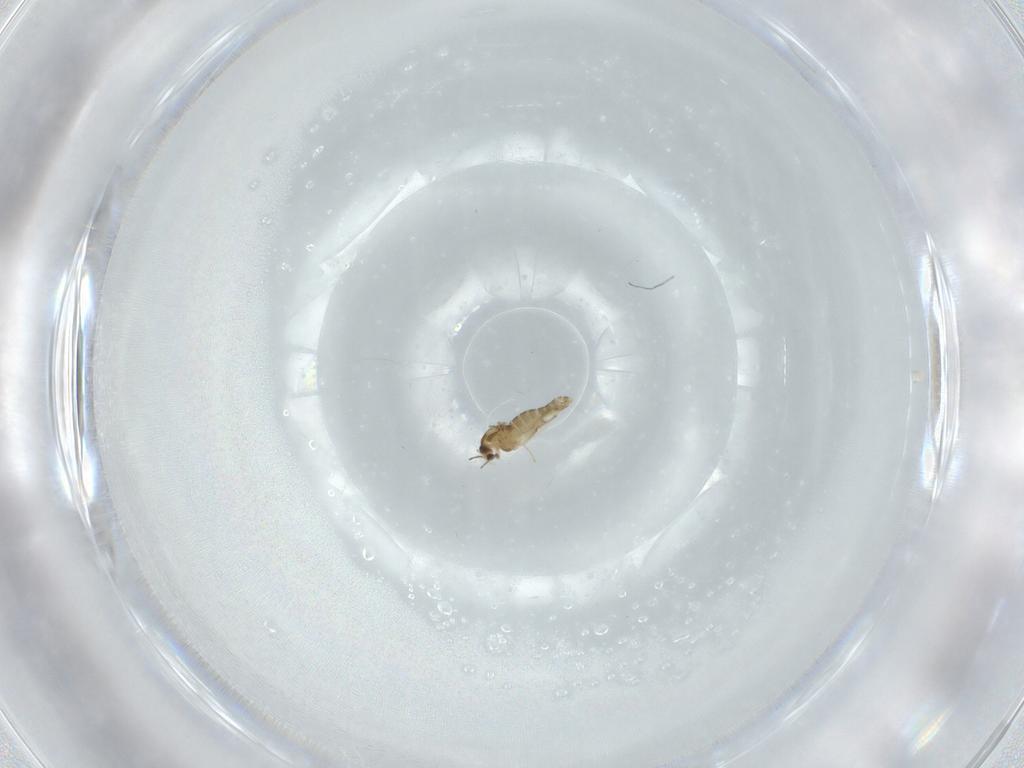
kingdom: Animalia
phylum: Arthropoda
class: Insecta
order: Diptera
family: Chironomidae
